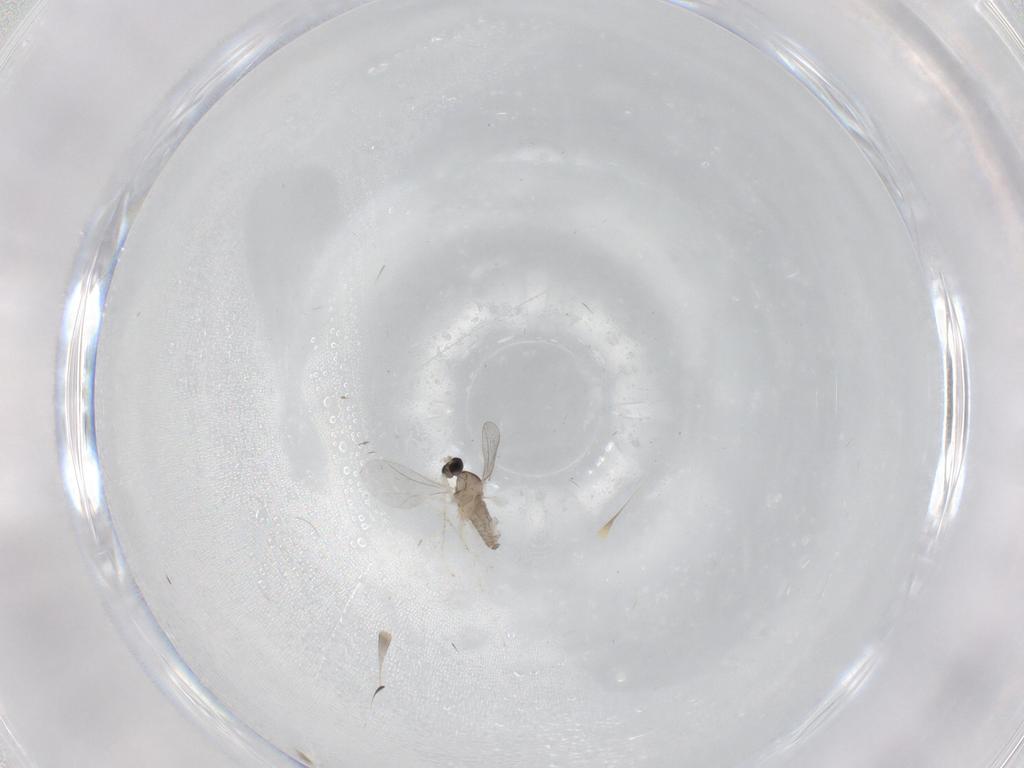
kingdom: Animalia
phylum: Arthropoda
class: Insecta
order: Diptera
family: Cecidomyiidae
